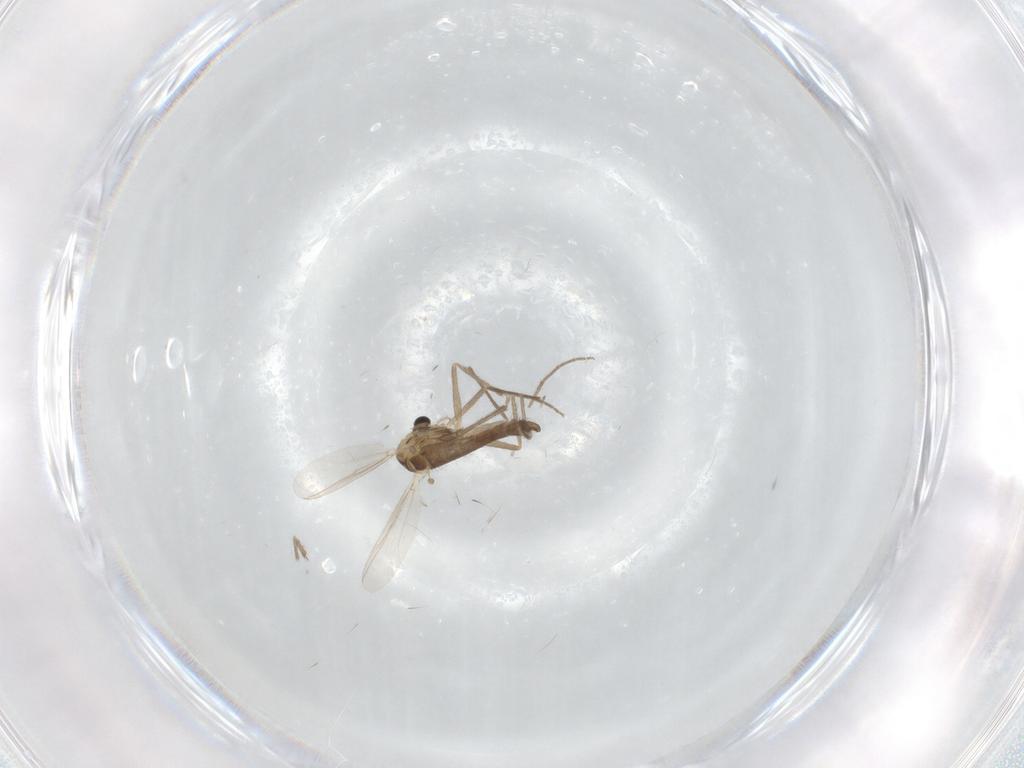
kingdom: Animalia
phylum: Arthropoda
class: Insecta
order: Diptera
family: Chironomidae
